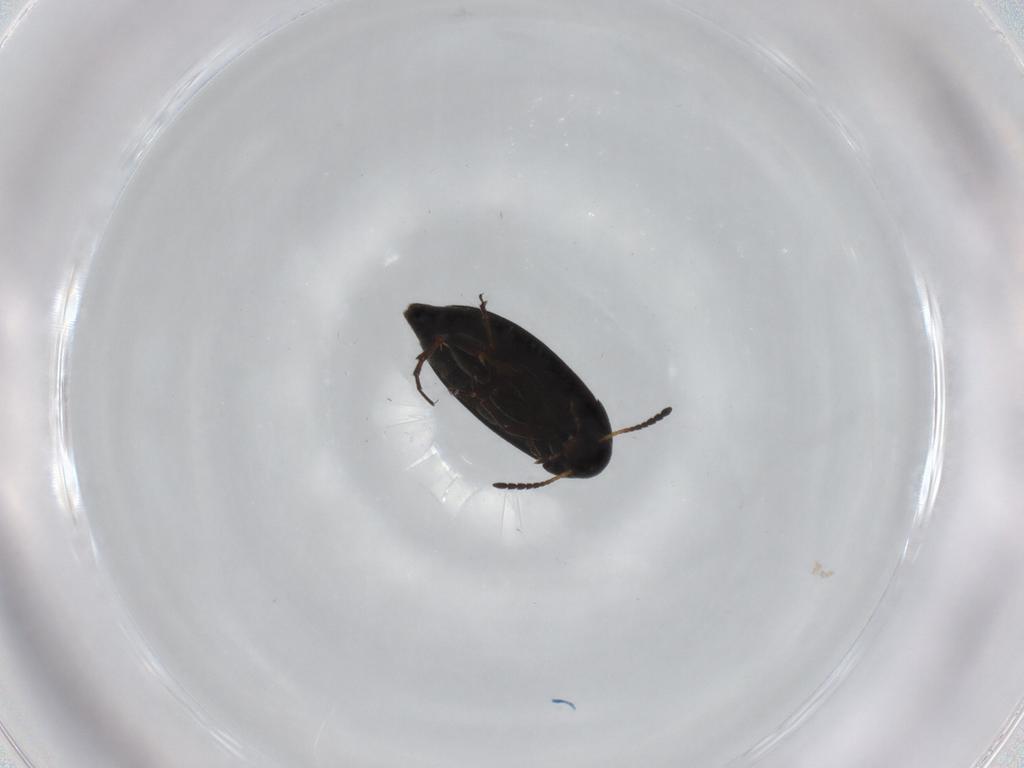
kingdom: Animalia
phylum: Arthropoda
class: Insecta
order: Coleoptera
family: Scraptiidae
